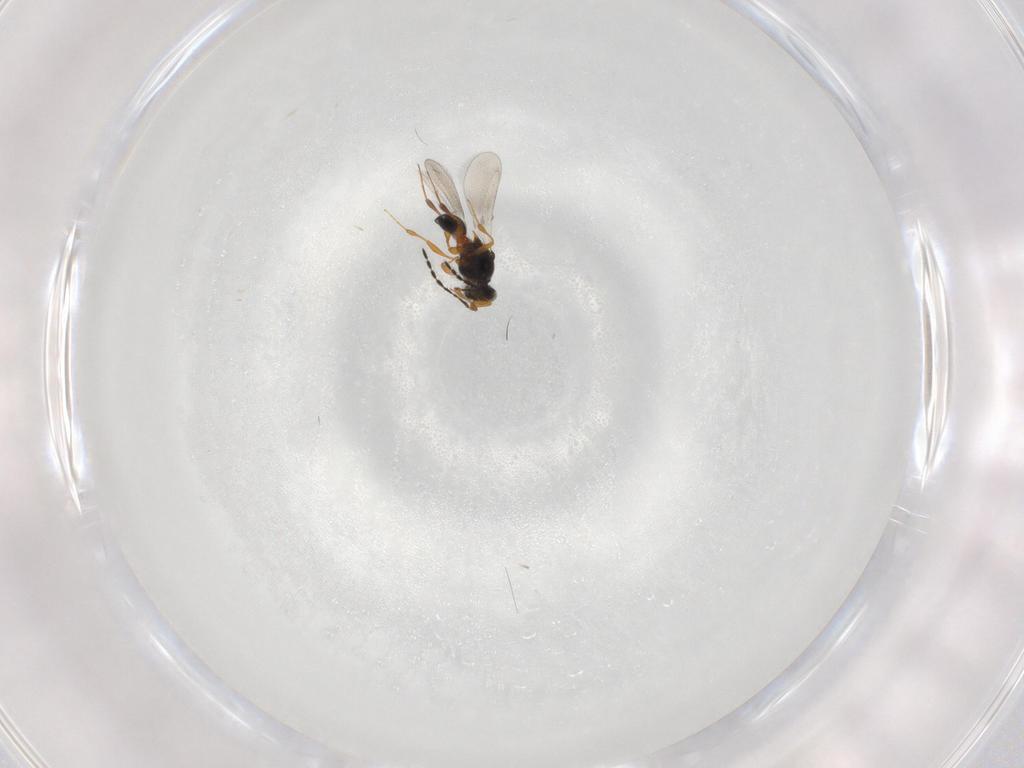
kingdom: Animalia
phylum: Arthropoda
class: Insecta
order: Hymenoptera
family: Platygastridae
